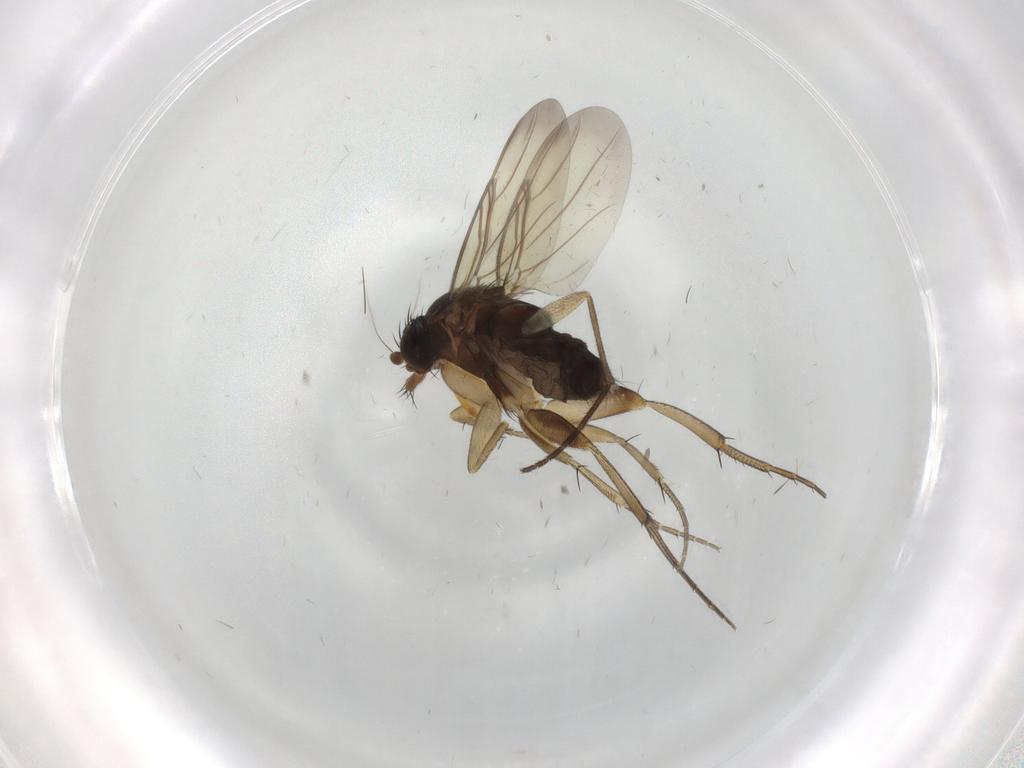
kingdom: Animalia
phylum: Arthropoda
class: Insecta
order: Diptera
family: Phoridae
